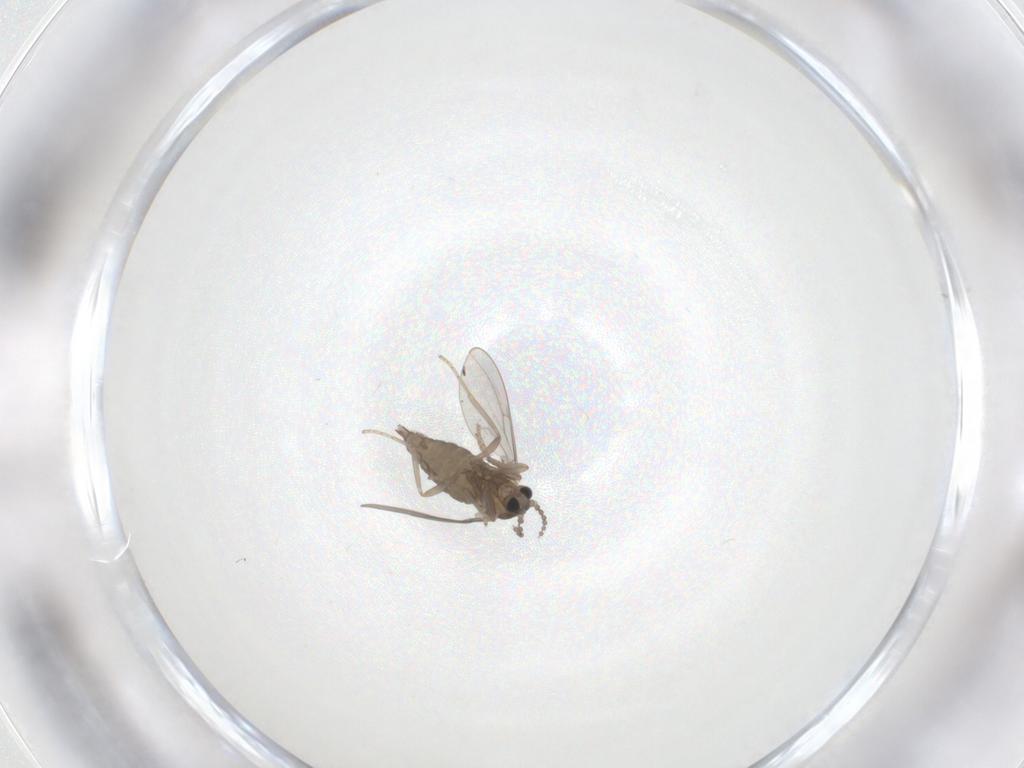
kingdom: Animalia
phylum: Arthropoda
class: Insecta
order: Diptera
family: Cecidomyiidae
